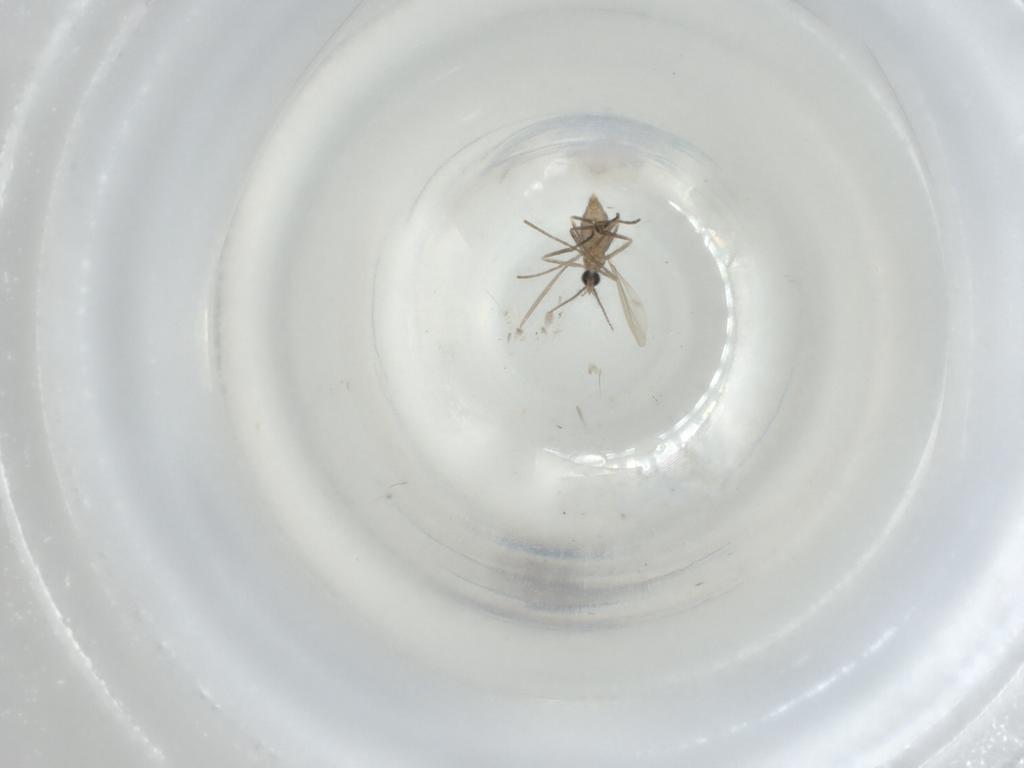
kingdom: Animalia
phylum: Arthropoda
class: Insecta
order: Diptera
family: Cecidomyiidae
